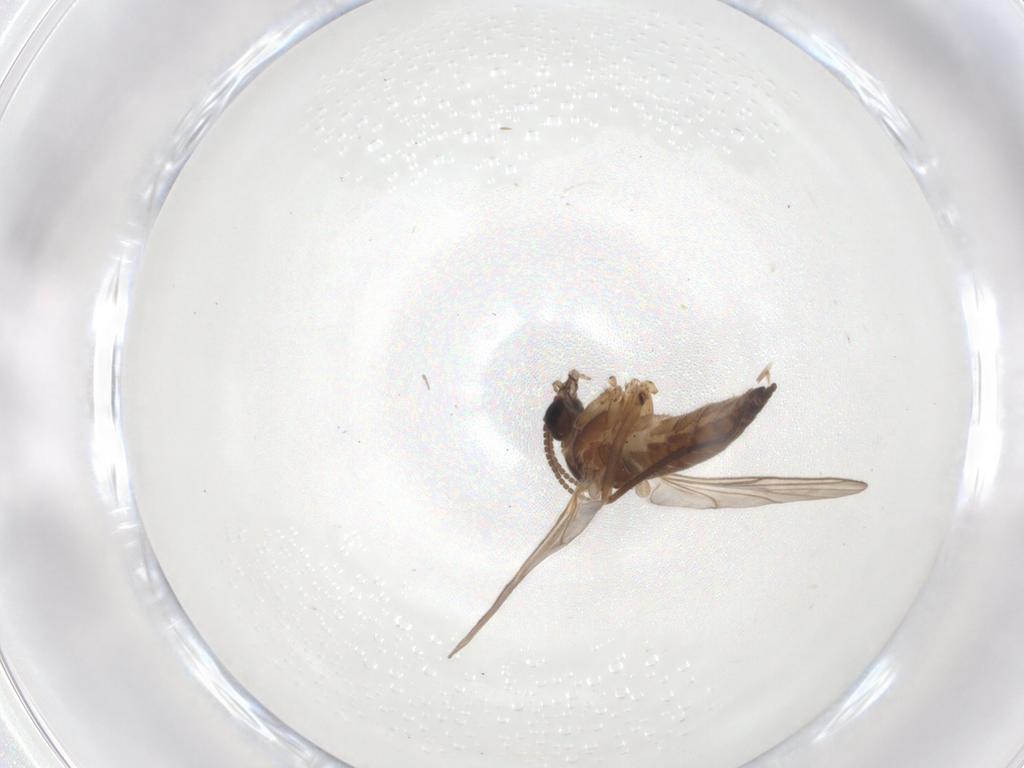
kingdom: Animalia
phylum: Arthropoda
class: Insecta
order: Diptera
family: Sciaridae
